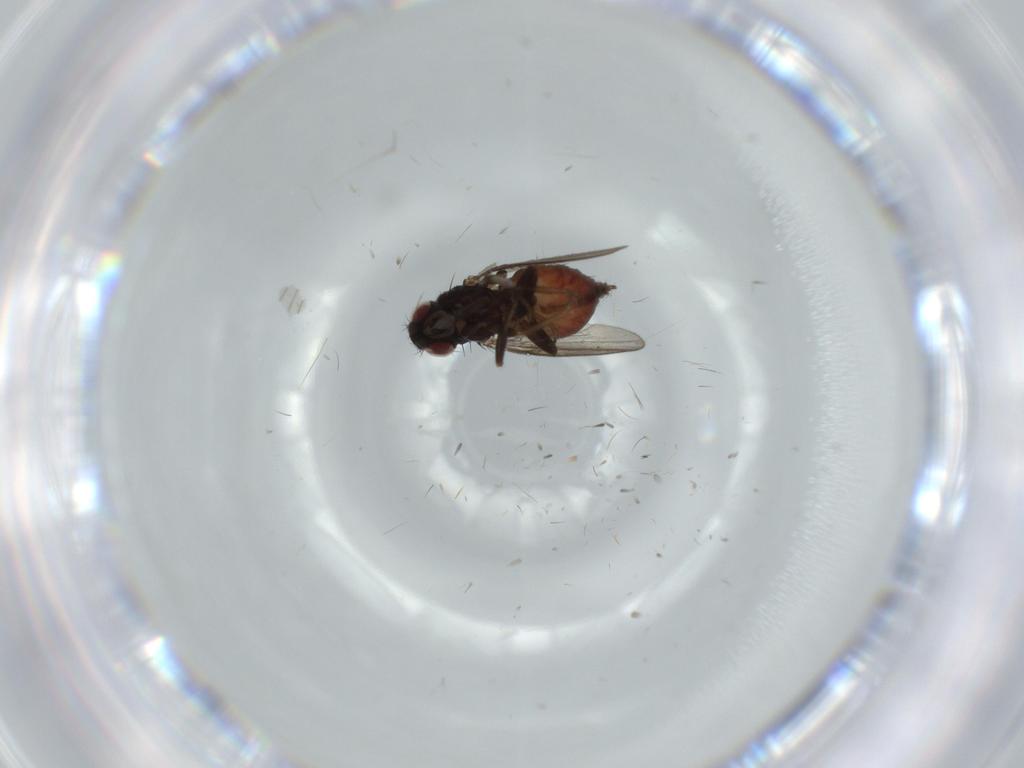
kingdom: Animalia
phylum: Arthropoda
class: Insecta
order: Diptera
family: Milichiidae
